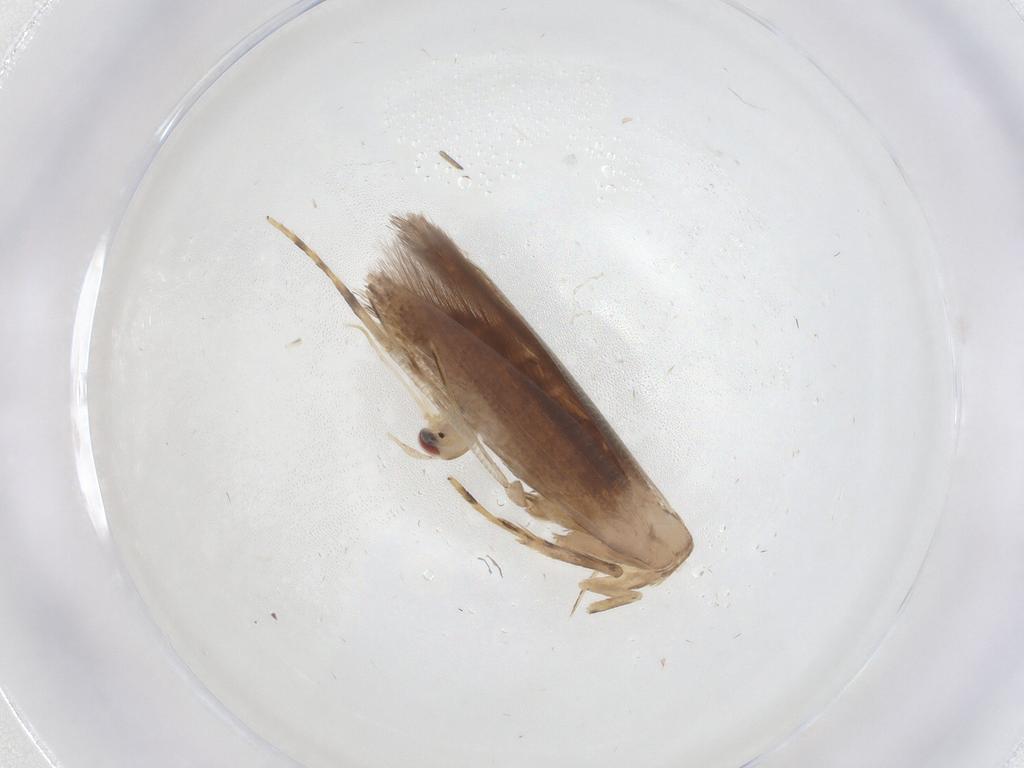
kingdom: Animalia
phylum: Arthropoda
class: Insecta
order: Lepidoptera
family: Cosmopterigidae
